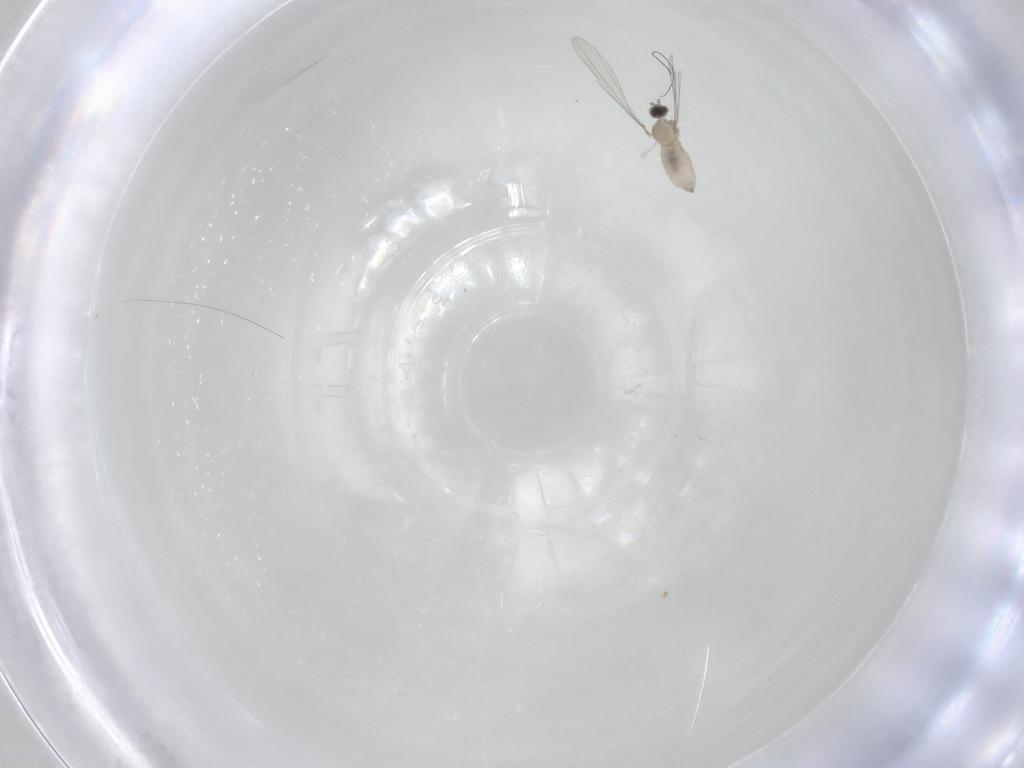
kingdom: Animalia
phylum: Arthropoda
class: Insecta
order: Diptera
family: Cecidomyiidae
